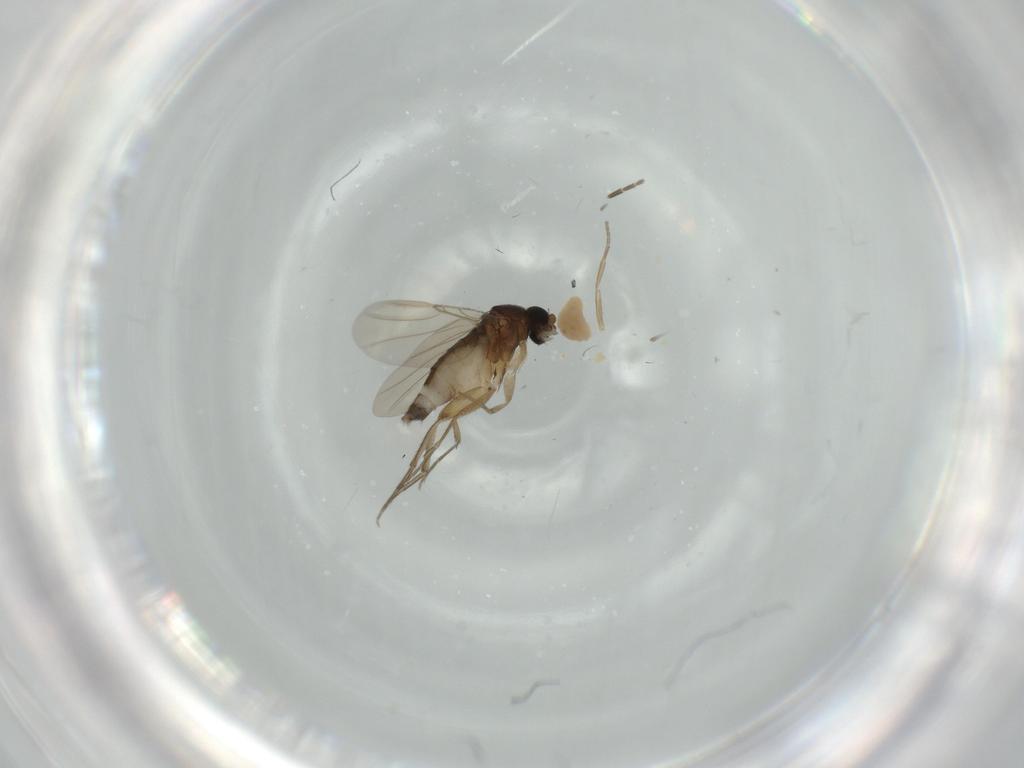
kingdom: Animalia
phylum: Arthropoda
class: Insecta
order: Diptera
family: Phoridae
